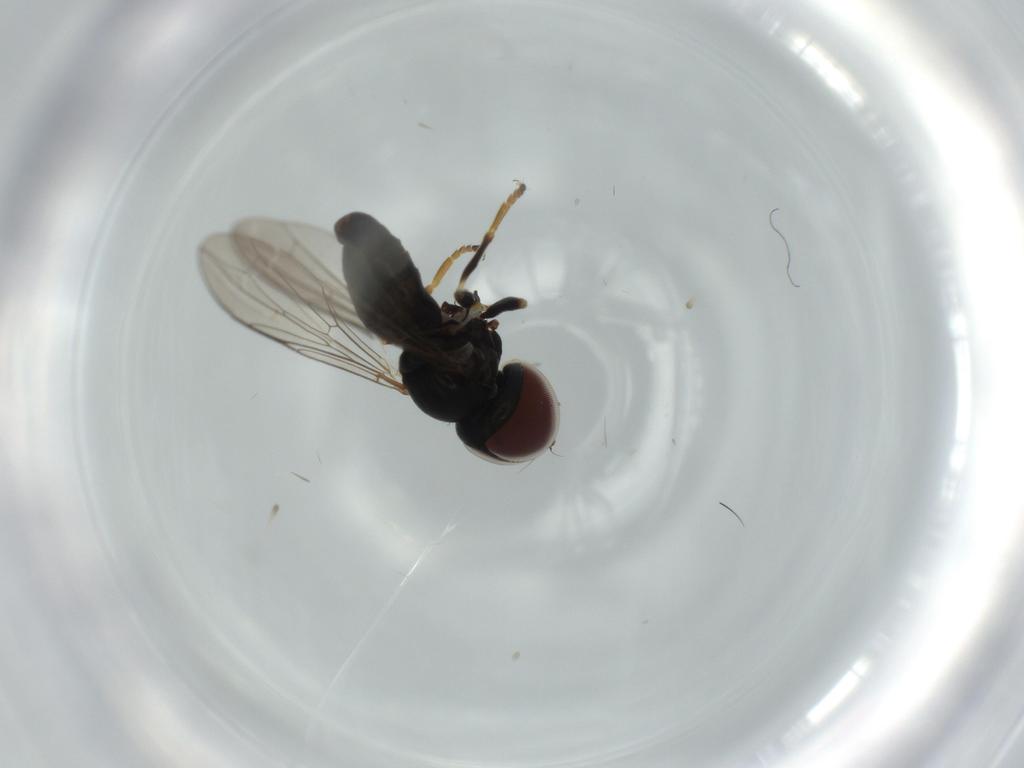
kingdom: Animalia
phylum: Arthropoda
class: Insecta
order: Diptera
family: Pipunculidae
